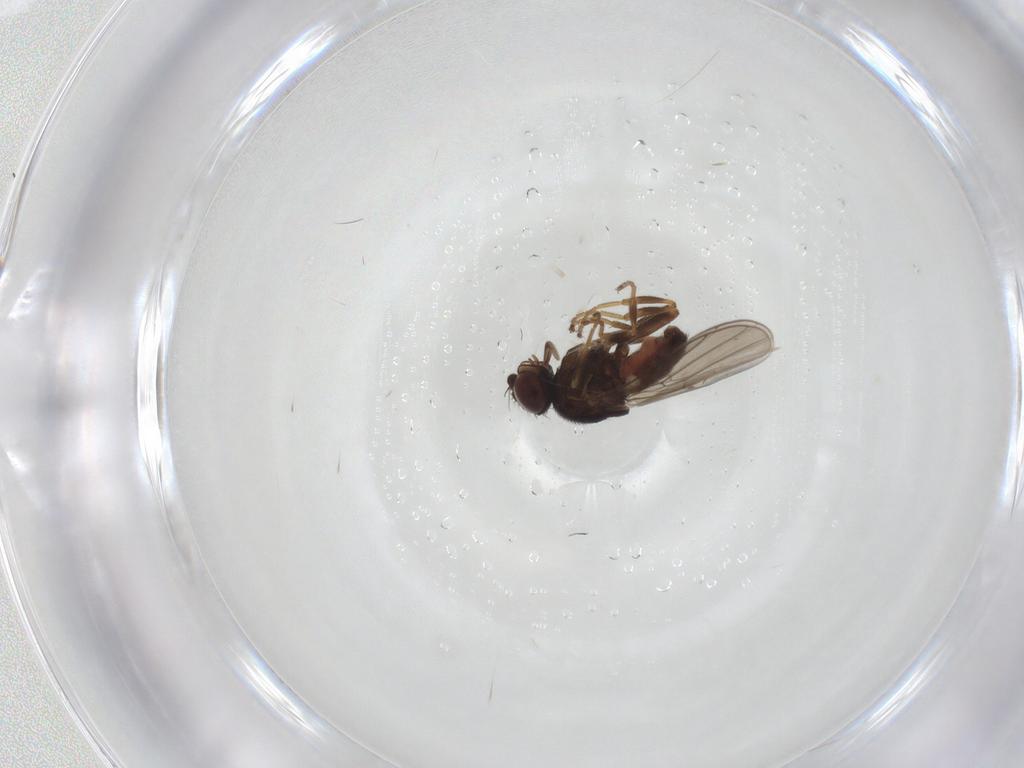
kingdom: Animalia
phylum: Arthropoda
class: Insecta
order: Diptera
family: Chloropidae
